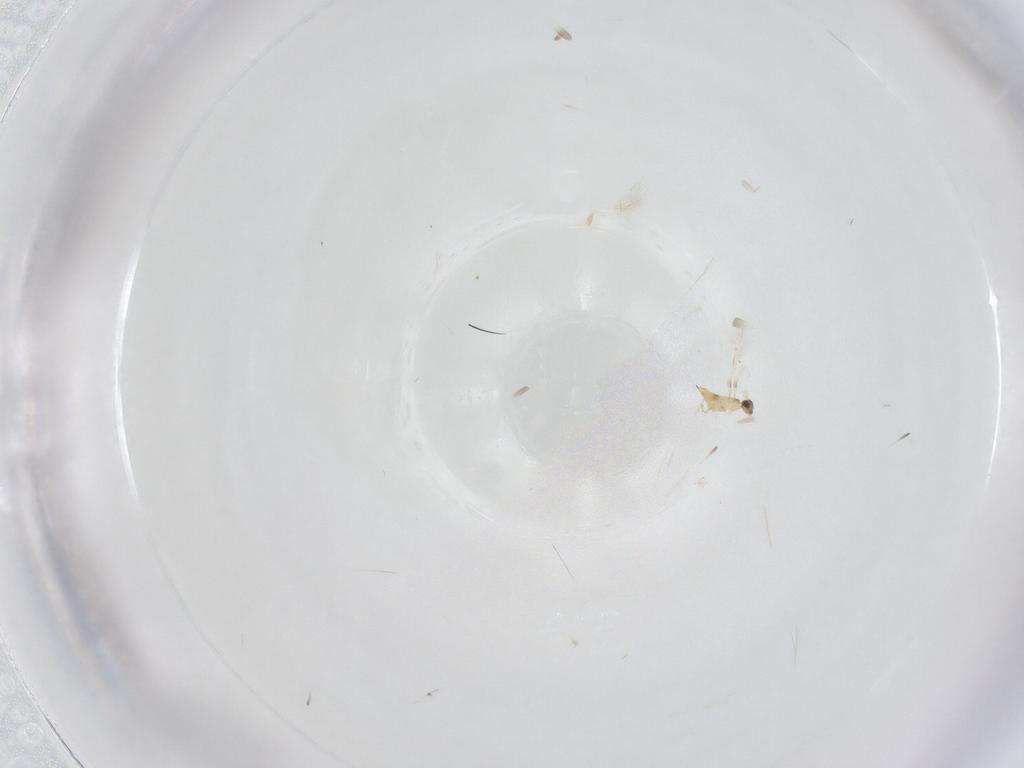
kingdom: Animalia
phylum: Arthropoda
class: Insecta
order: Hymenoptera
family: Mymaridae
